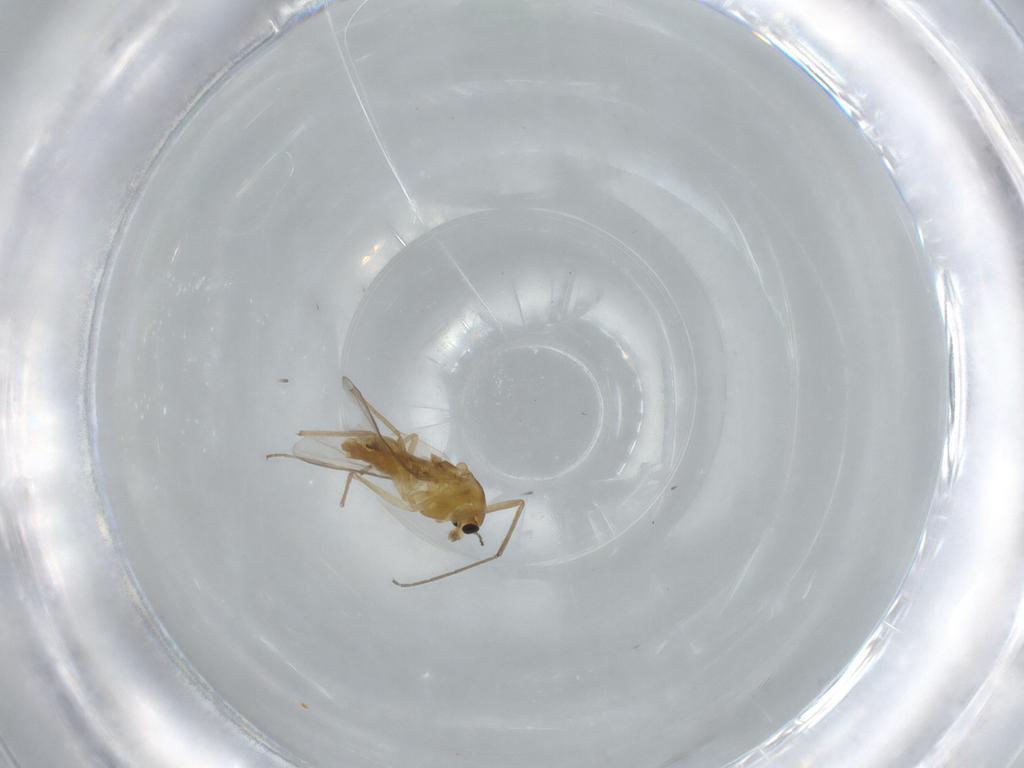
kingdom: Animalia
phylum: Arthropoda
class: Insecta
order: Diptera
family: Chironomidae
